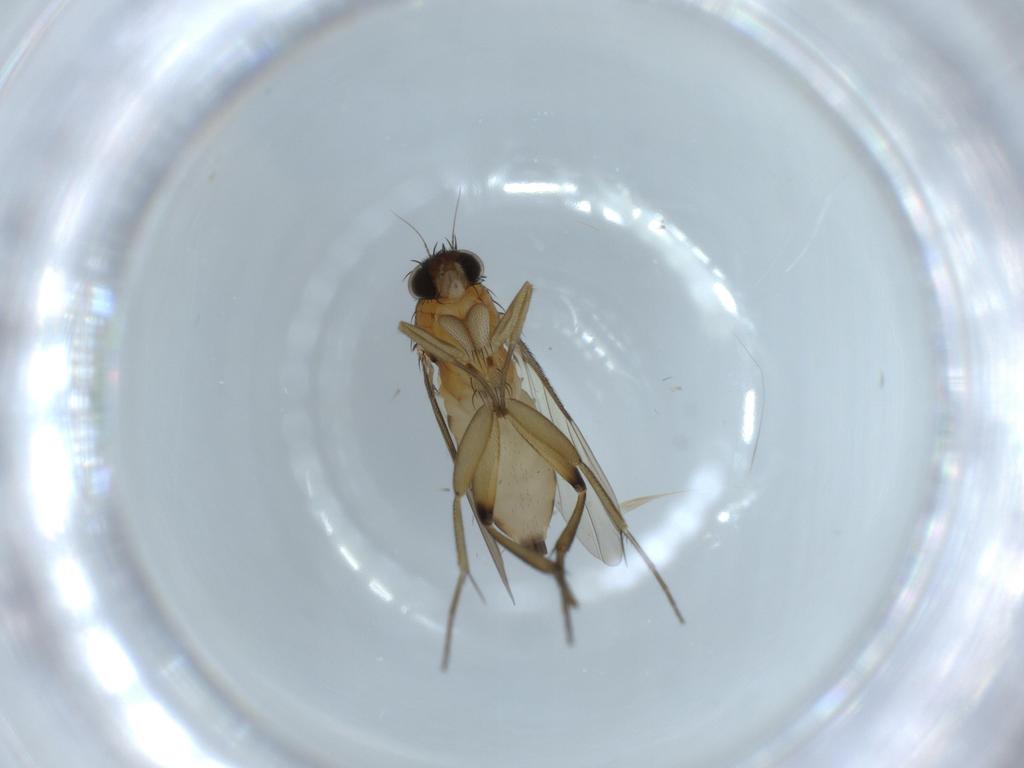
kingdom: Animalia
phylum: Arthropoda
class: Insecta
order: Diptera
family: Phoridae
